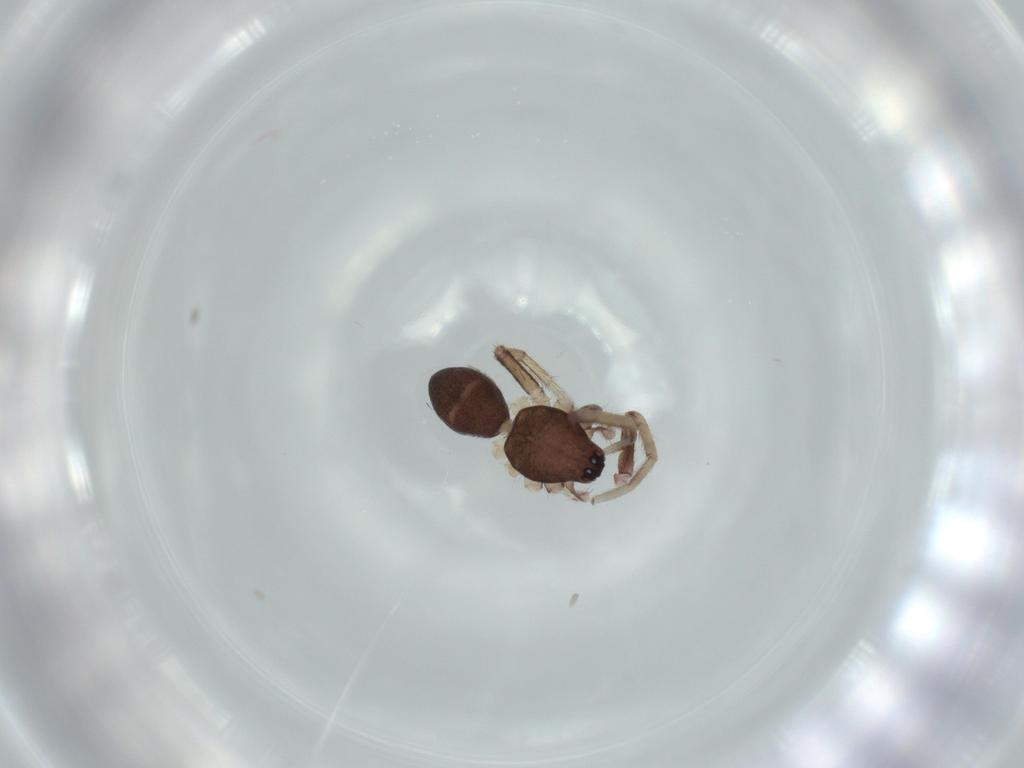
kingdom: Animalia
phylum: Arthropoda
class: Arachnida
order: Araneae
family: Corinnidae
